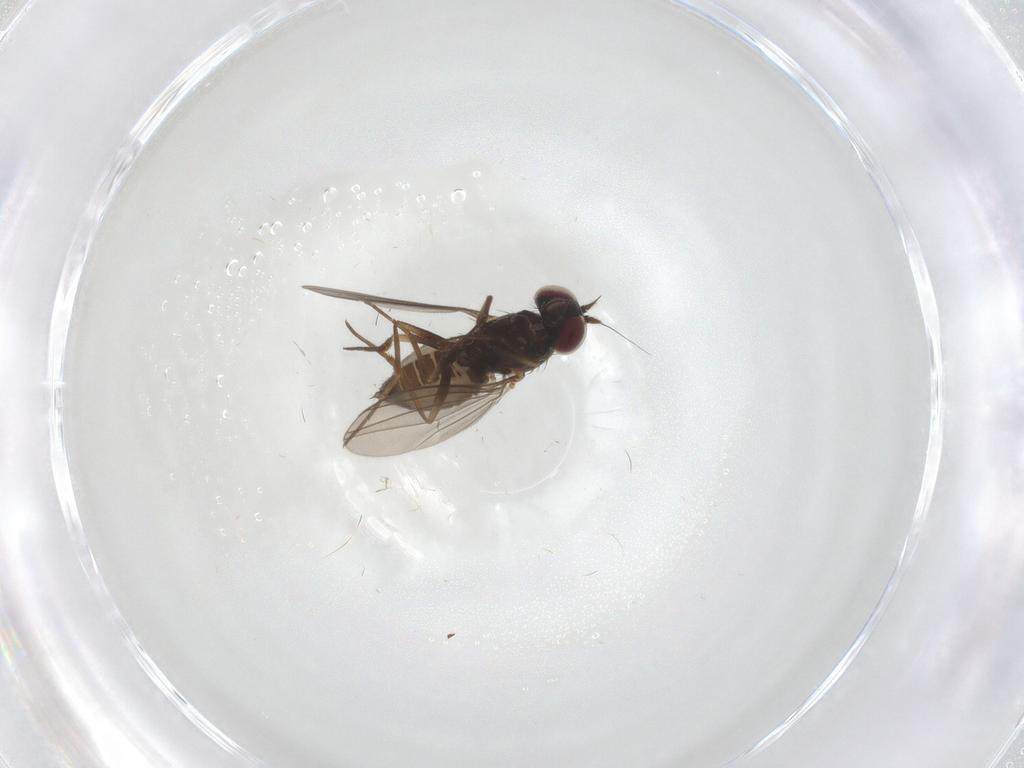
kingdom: Animalia
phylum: Arthropoda
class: Insecta
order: Diptera
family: Dolichopodidae
